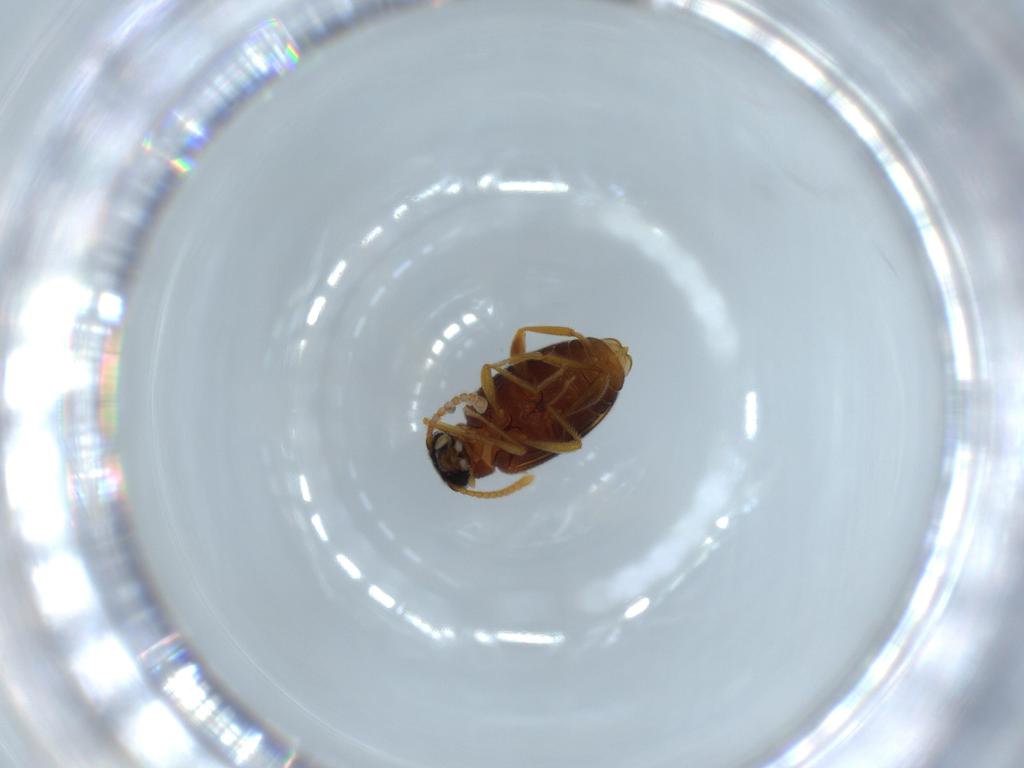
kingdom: Animalia
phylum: Arthropoda
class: Insecta
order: Coleoptera
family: Aderidae
